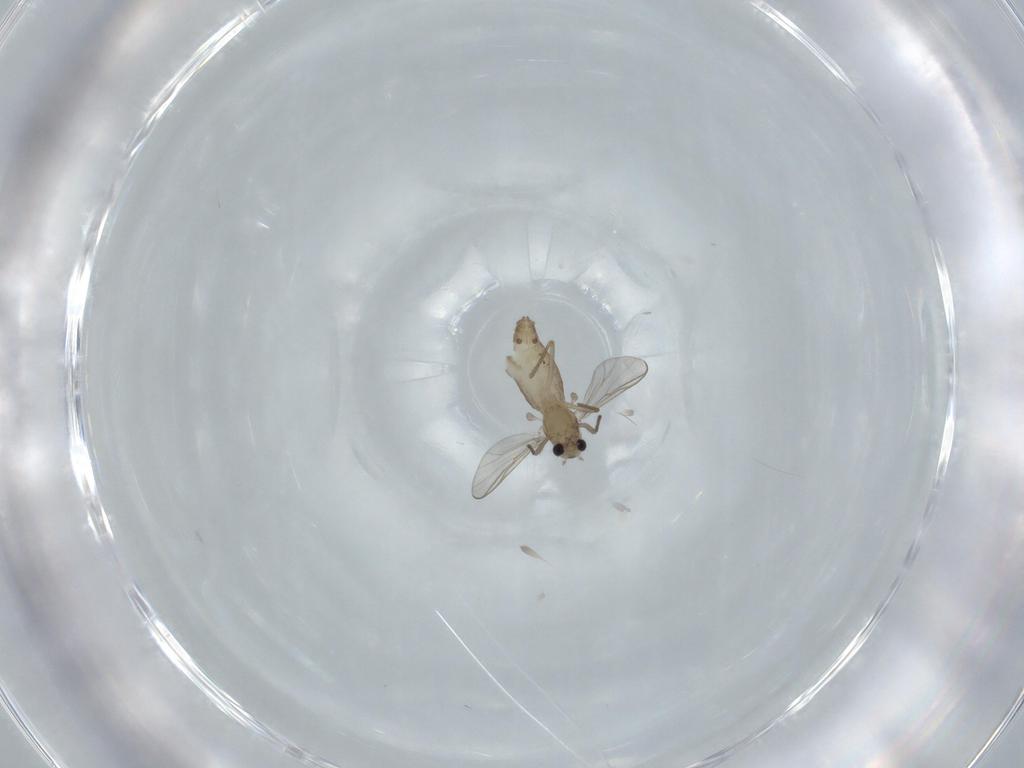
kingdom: Animalia
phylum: Arthropoda
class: Insecta
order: Diptera
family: Chironomidae
